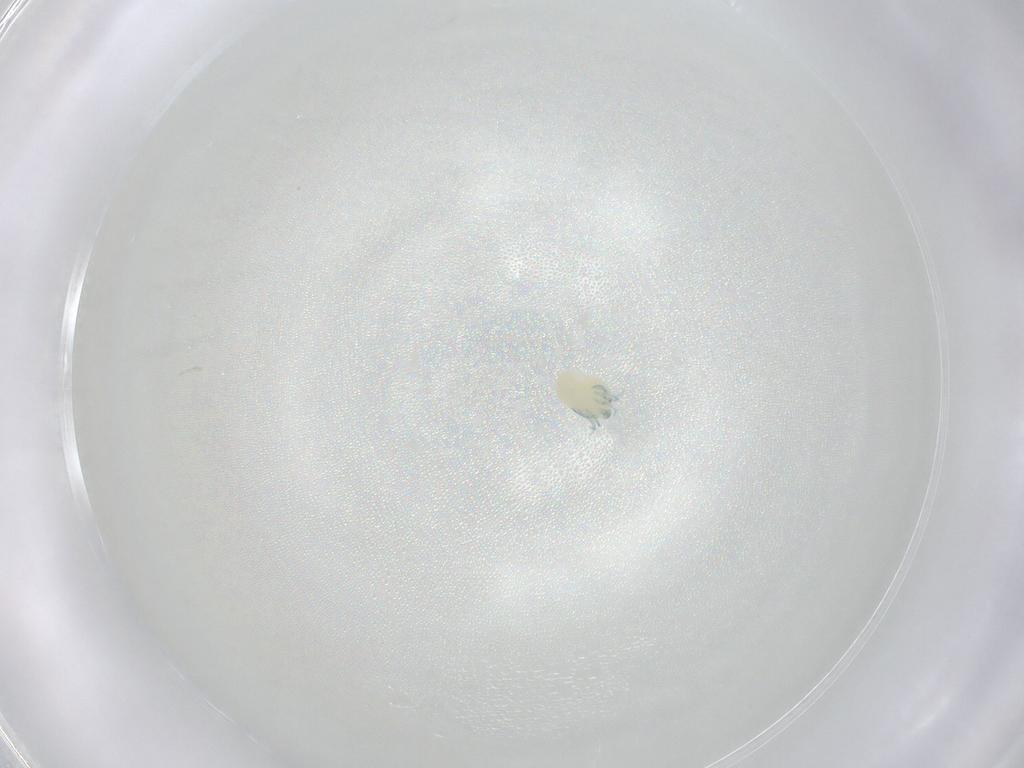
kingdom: Animalia
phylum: Arthropoda
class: Arachnida
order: Trombidiformes
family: Arrenuridae
